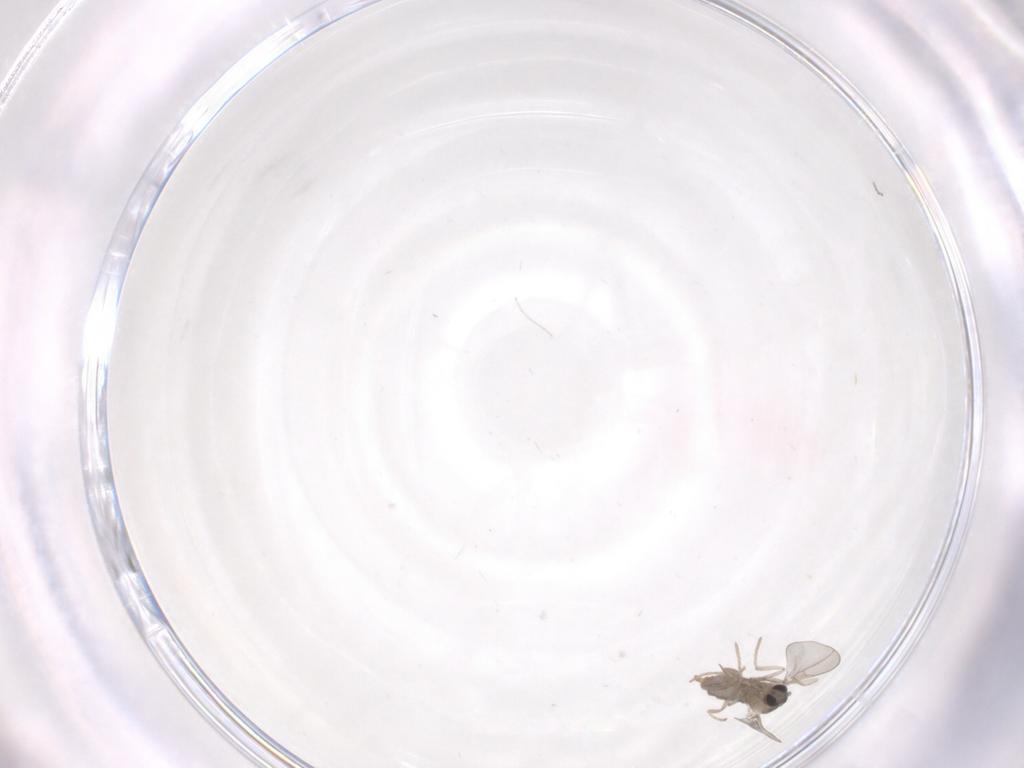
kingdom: Animalia
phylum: Arthropoda
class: Insecta
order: Diptera
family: Cecidomyiidae
